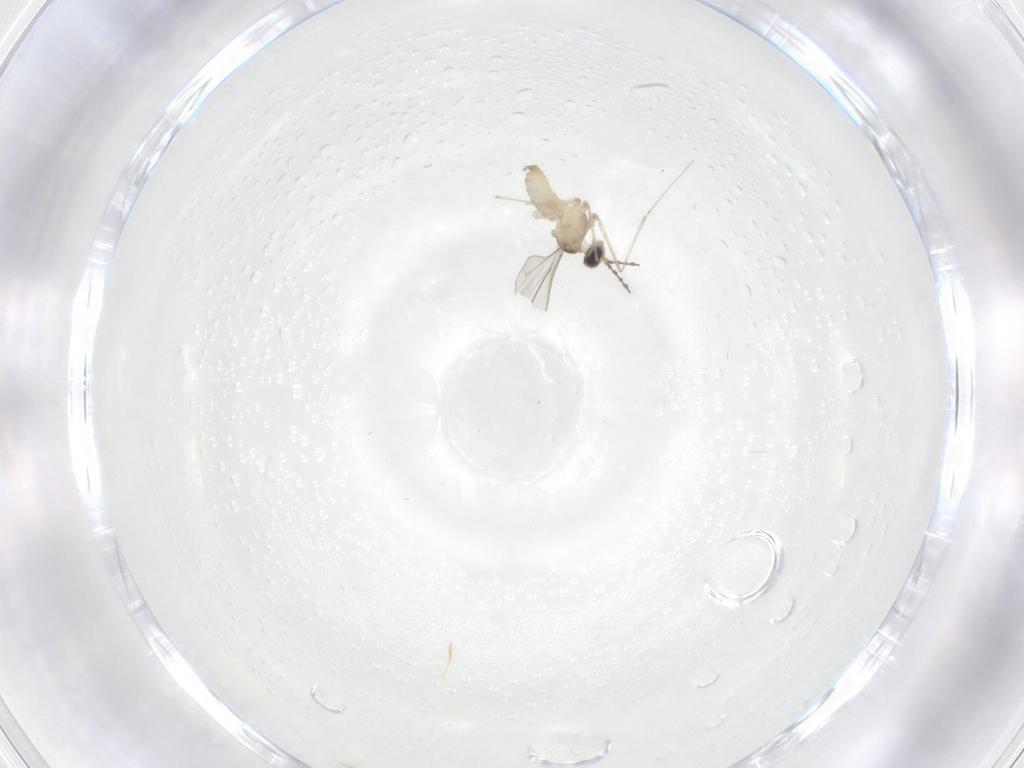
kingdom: Animalia
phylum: Arthropoda
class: Insecta
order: Diptera
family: Cecidomyiidae
